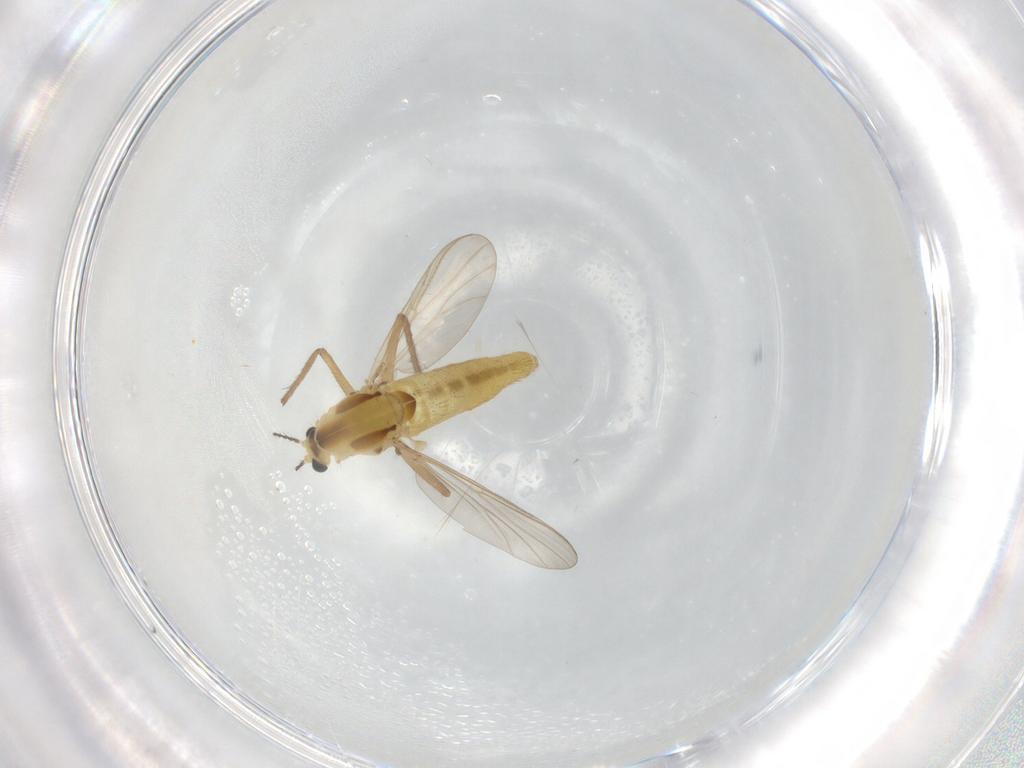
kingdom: Animalia
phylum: Arthropoda
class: Insecta
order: Diptera
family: Chironomidae
